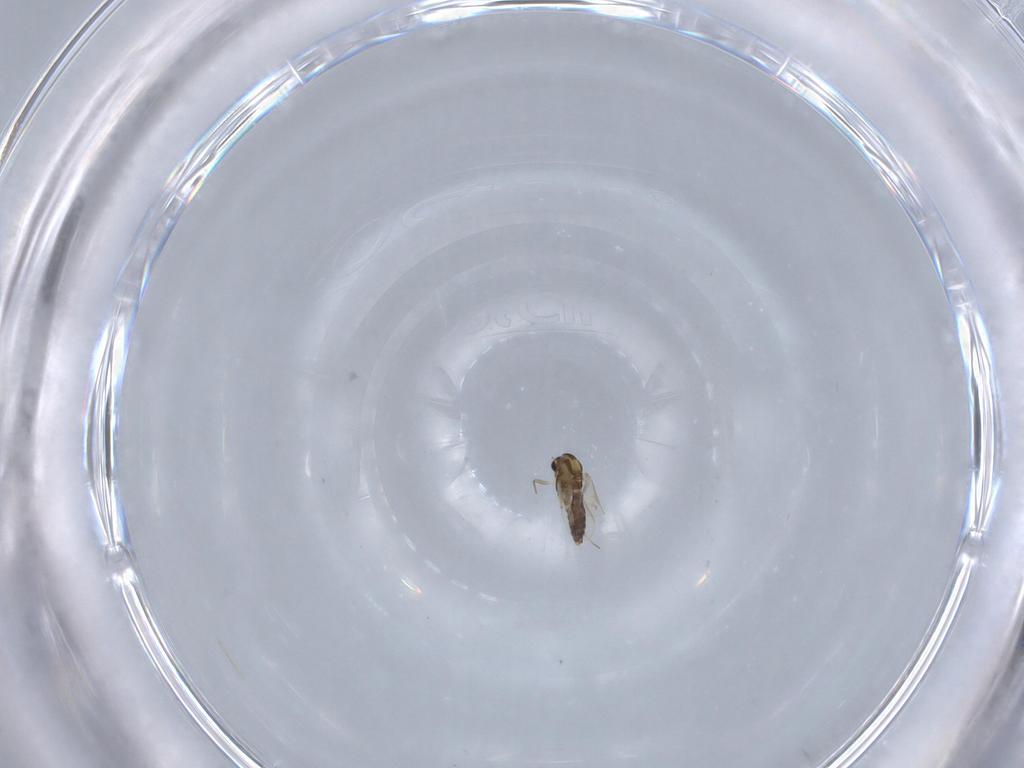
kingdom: Animalia
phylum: Arthropoda
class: Insecta
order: Diptera
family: Chironomidae
